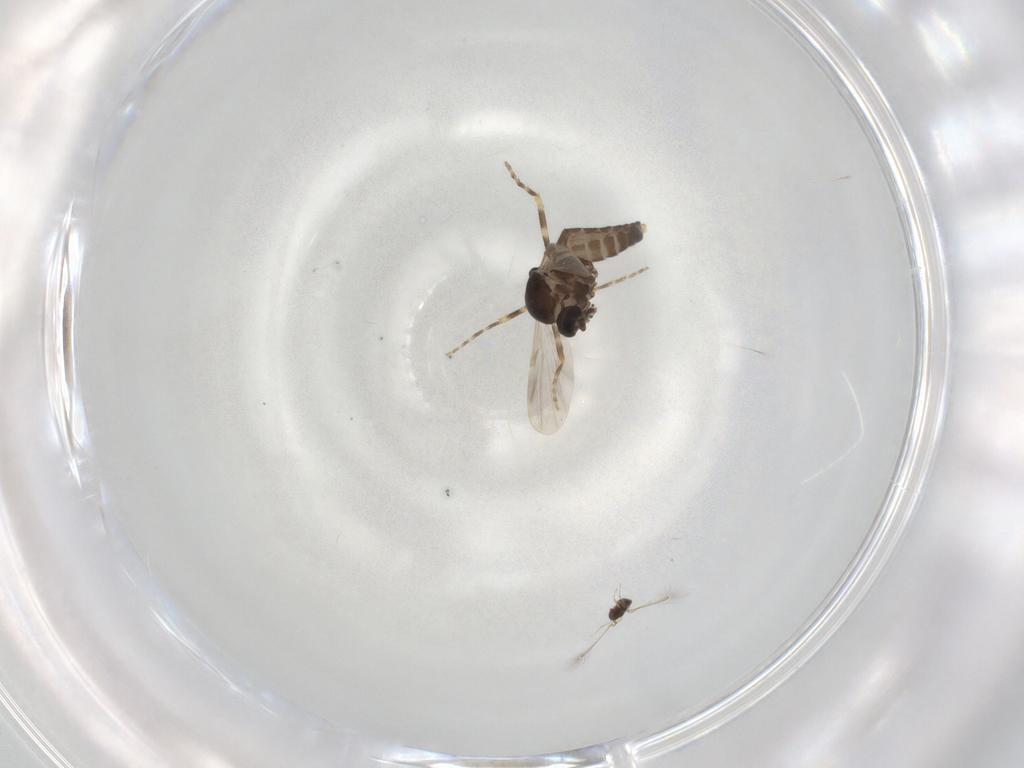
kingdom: Animalia
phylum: Arthropoda
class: Insecta
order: Diptera
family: Ceratopogonidae
